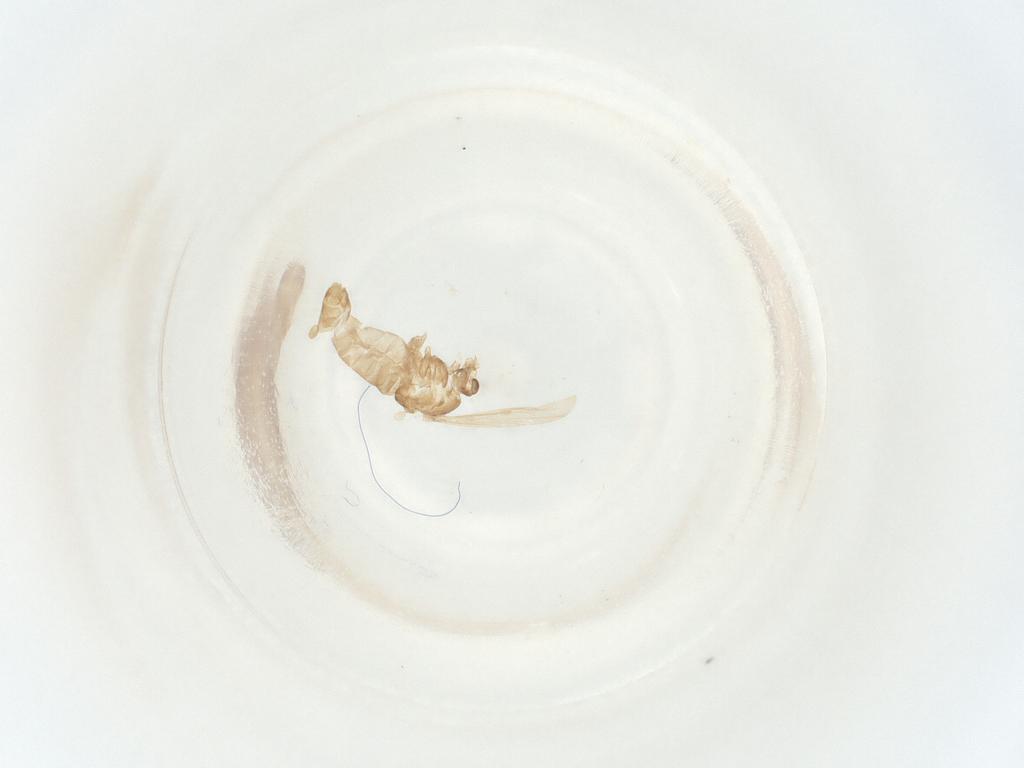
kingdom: Animalia
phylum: Arthropoda
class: Insecta
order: Diptera
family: Chironomidae
